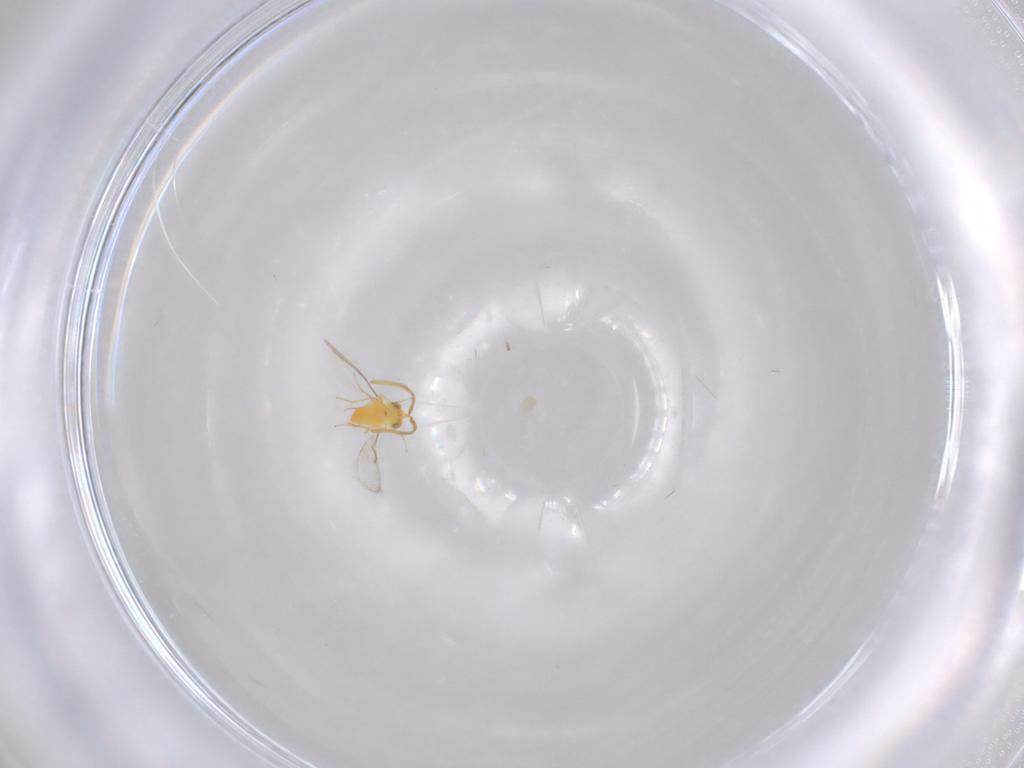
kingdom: Animalia
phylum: Arthropoda
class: Insecta
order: Hymenoptera
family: Aphelinidae
